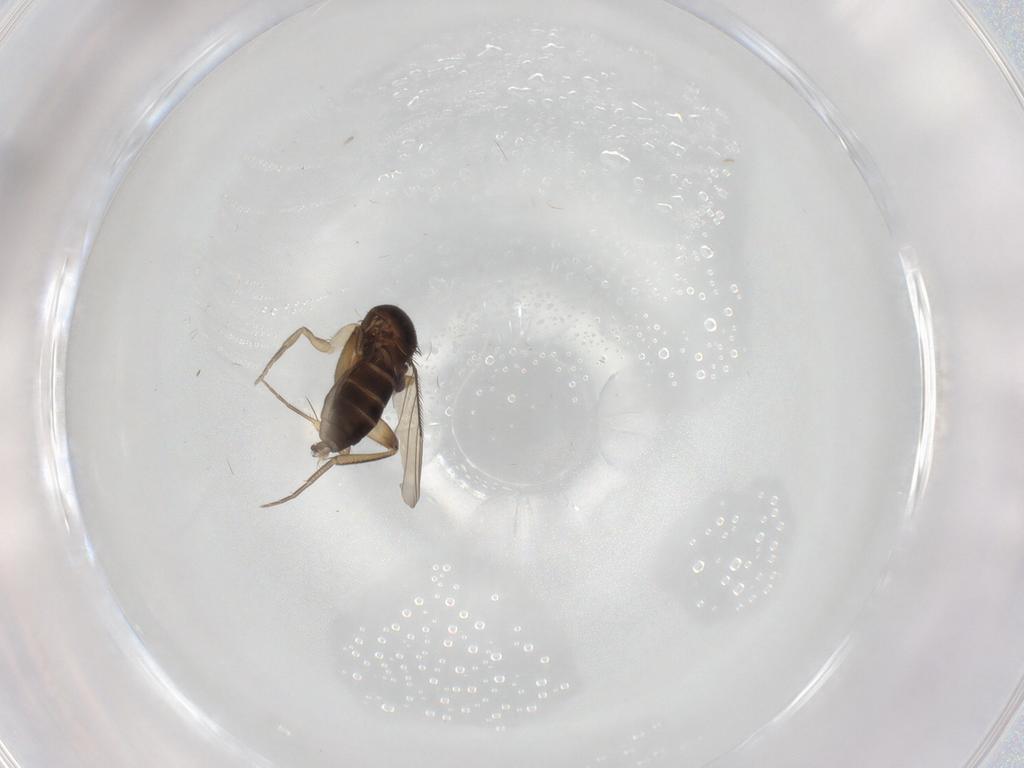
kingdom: Animalia
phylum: Arthropoda
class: Insecta
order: Diptera
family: Phoridae
